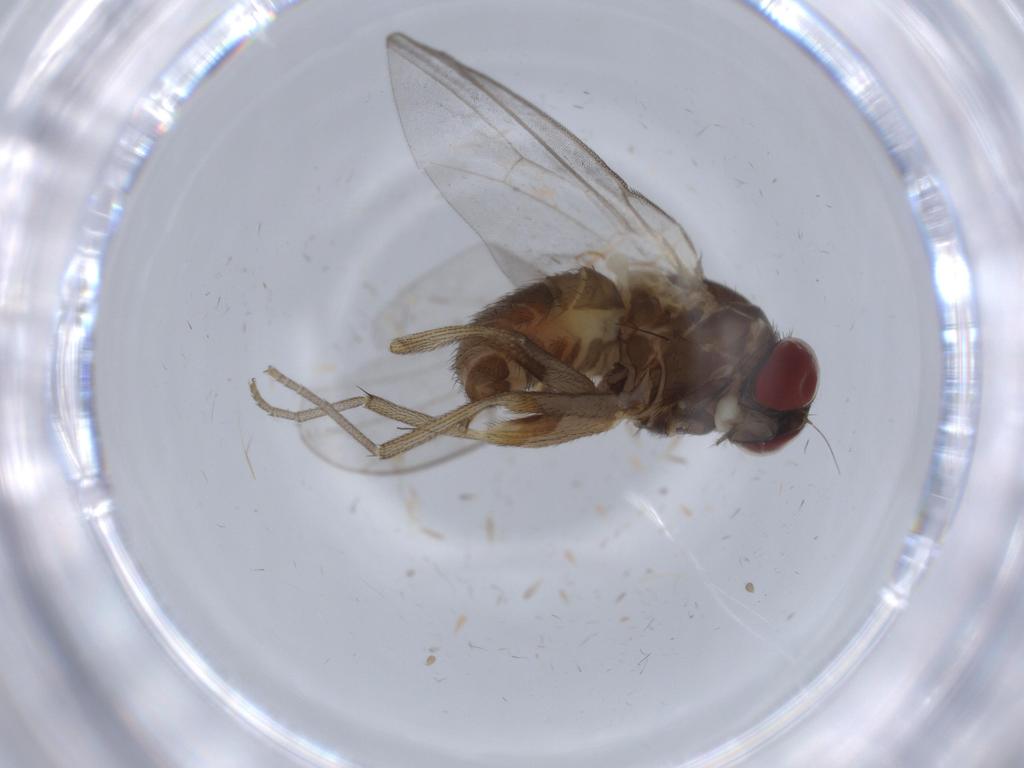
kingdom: Animalia
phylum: Arthropoda
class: Insecta
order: Diptera
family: Agromyzidae
